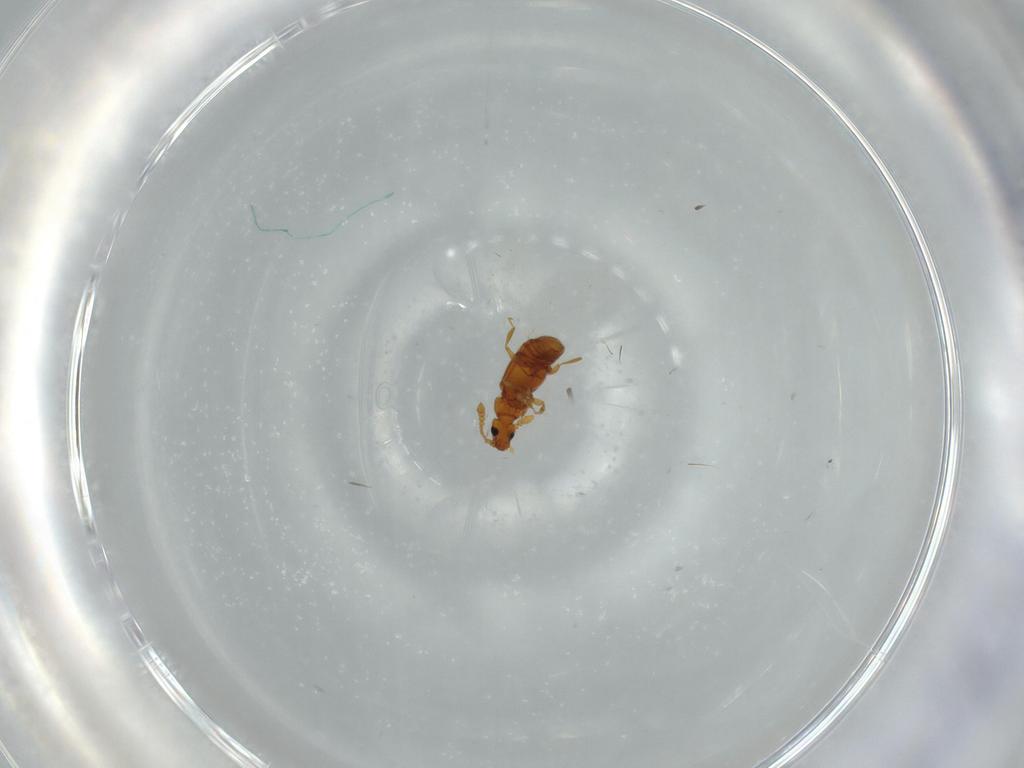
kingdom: Animalia
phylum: Arthropoda
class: Insecta
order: Coleoptera
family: Staphylinidae
